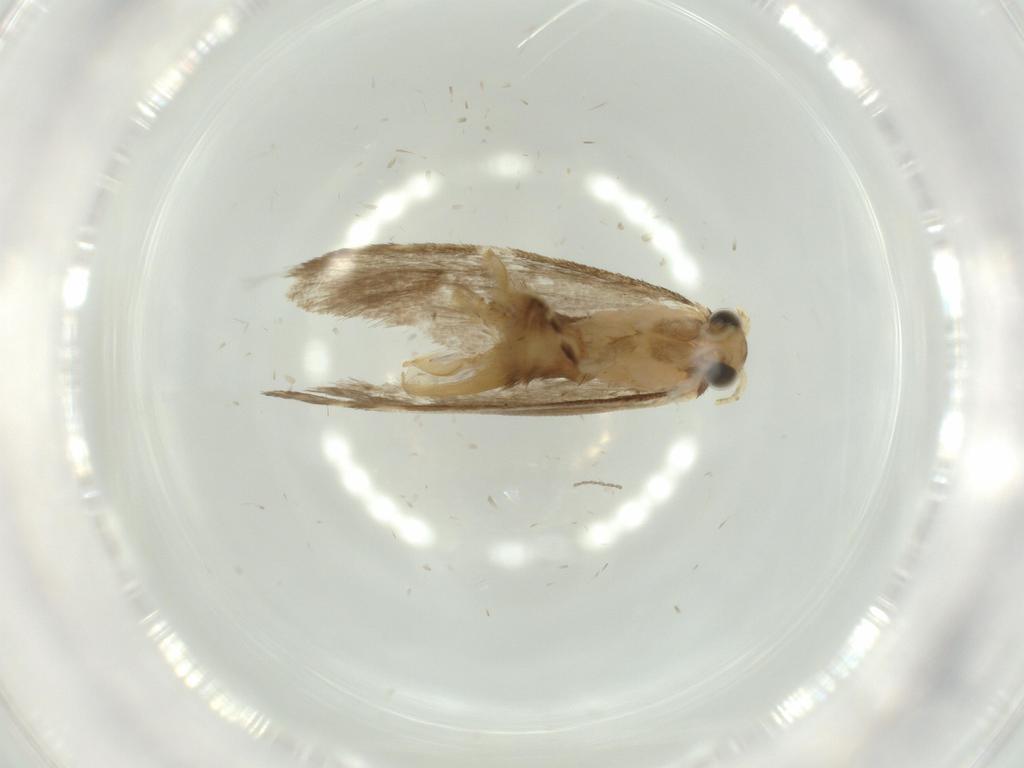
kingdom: Animalia
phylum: Arthropoda
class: Insecta
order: Lepidoptera
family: Tineidae
